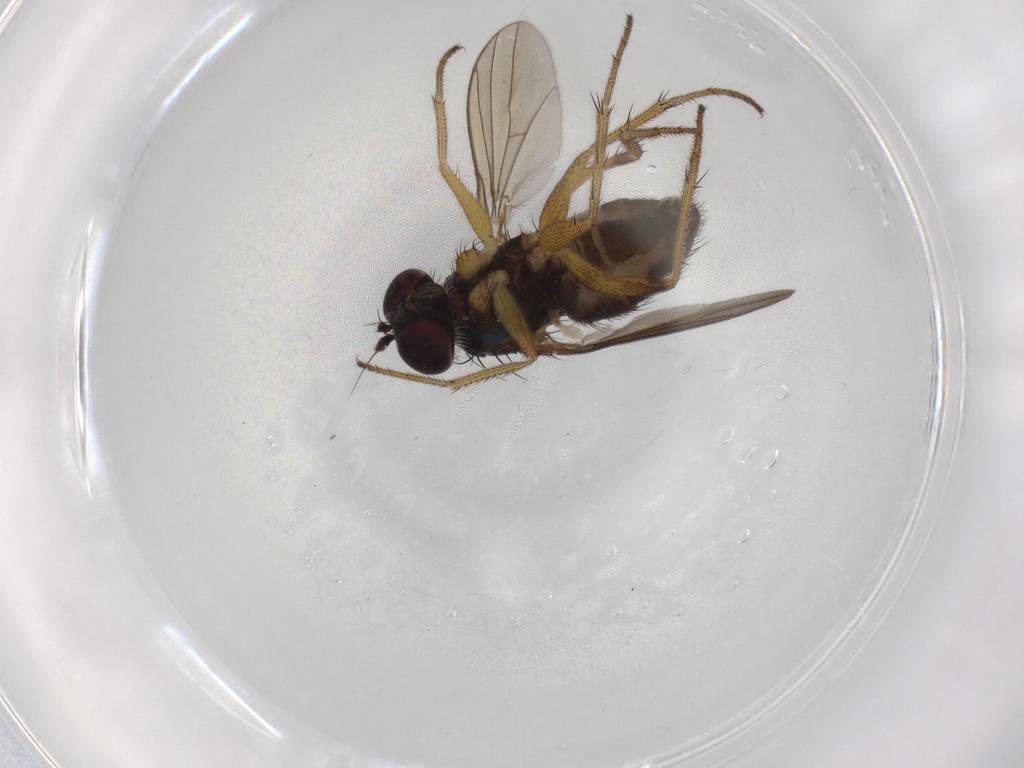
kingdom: Animalia
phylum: Arthropoda
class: Insecta
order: Diptera
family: Dolichopodidae
